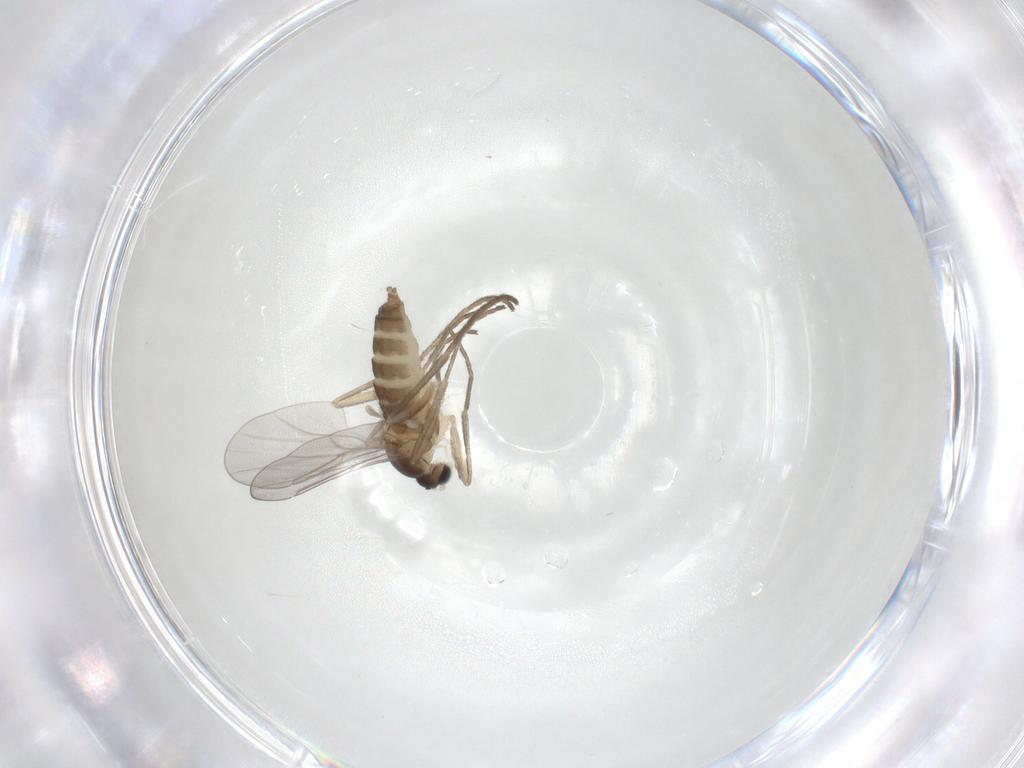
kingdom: Animalia
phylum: Arthropoda
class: Insecta
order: Diptera
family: Cecidomyiidae
